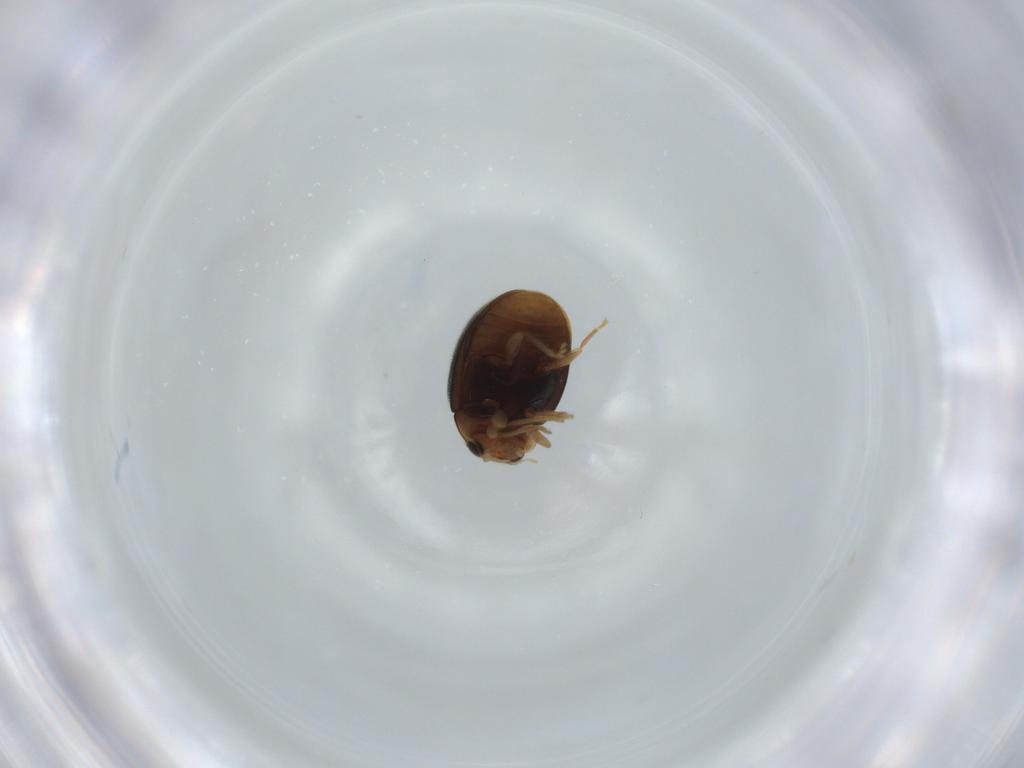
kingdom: Animalia
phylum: Arthropoda
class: Insecta
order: Coleoptera
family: Coccinellidae
